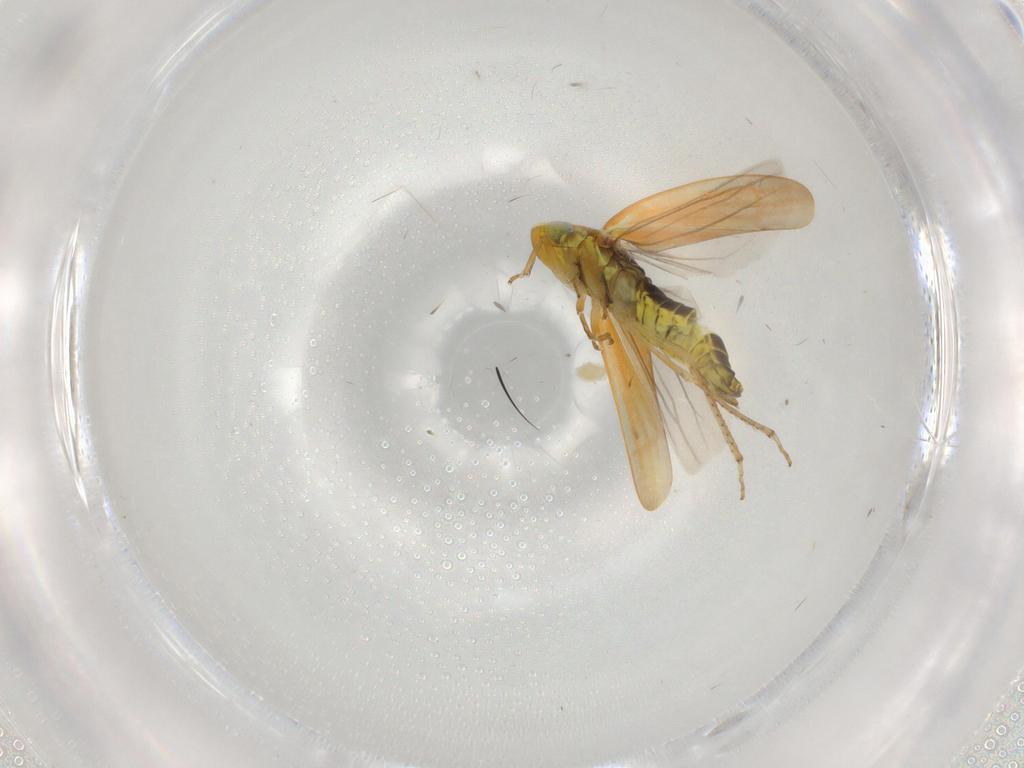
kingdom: Animalia
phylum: Arthropoda
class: Insecta
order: Hemiptera
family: Cicadellidae
